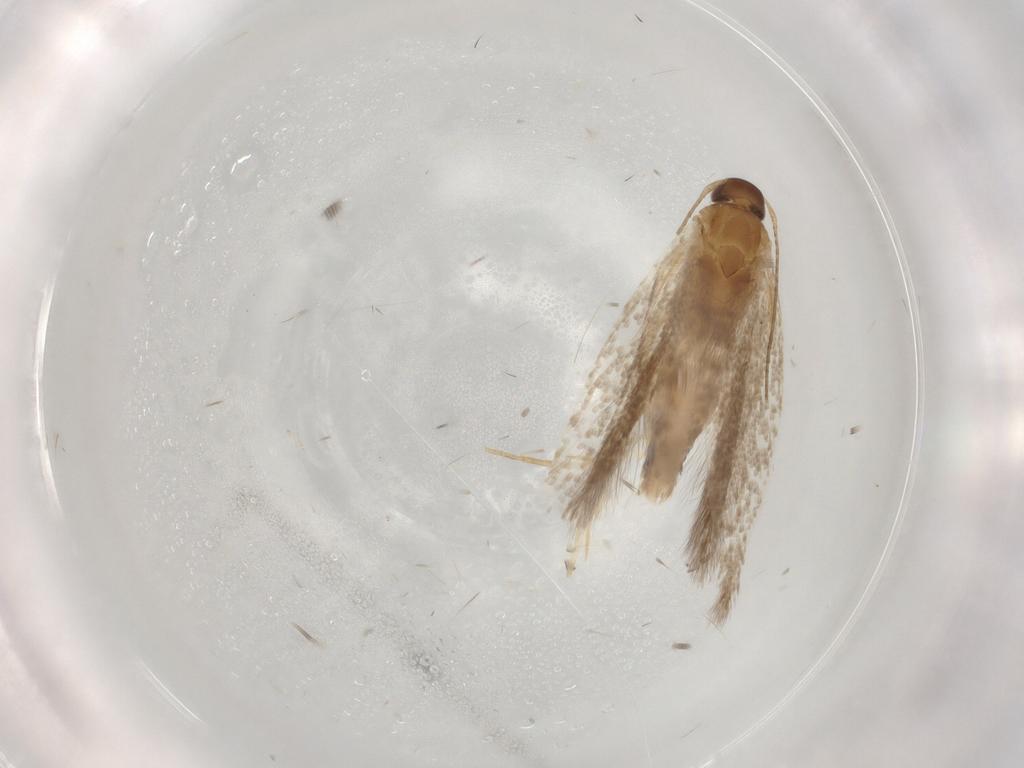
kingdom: Animalia
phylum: Arthropoda
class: Insecta
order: Lepidoptera
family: Gelechiidae
